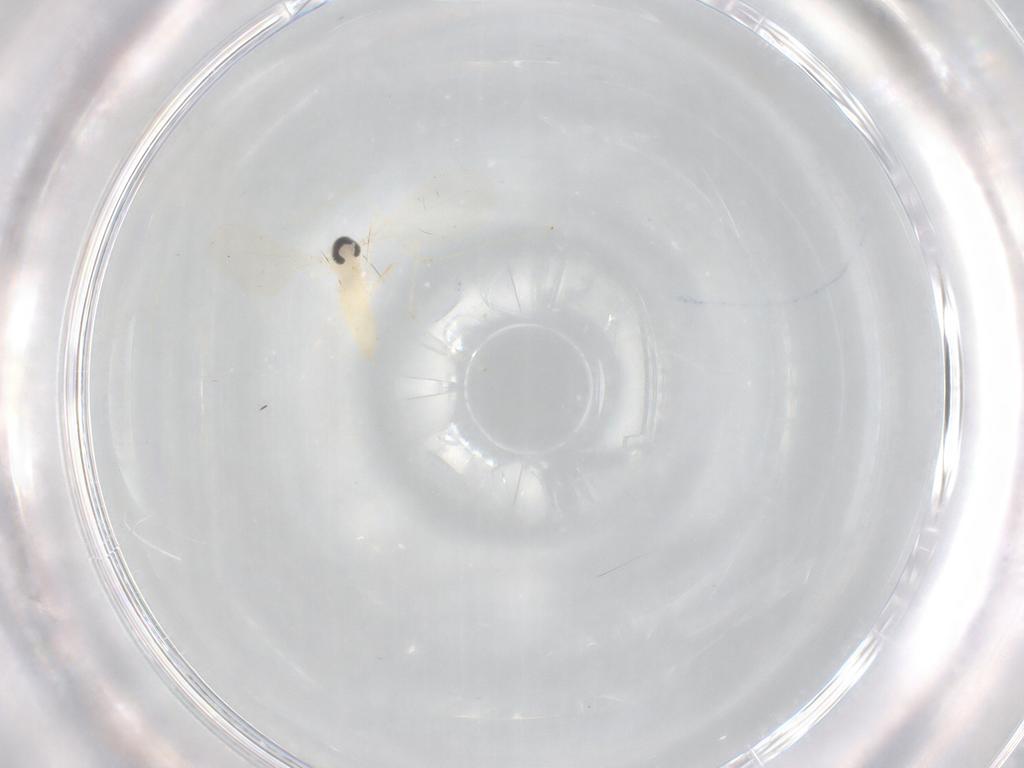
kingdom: Animalia
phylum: Arthropoda
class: Insecta
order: Diptera
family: Cecidomyiidae
